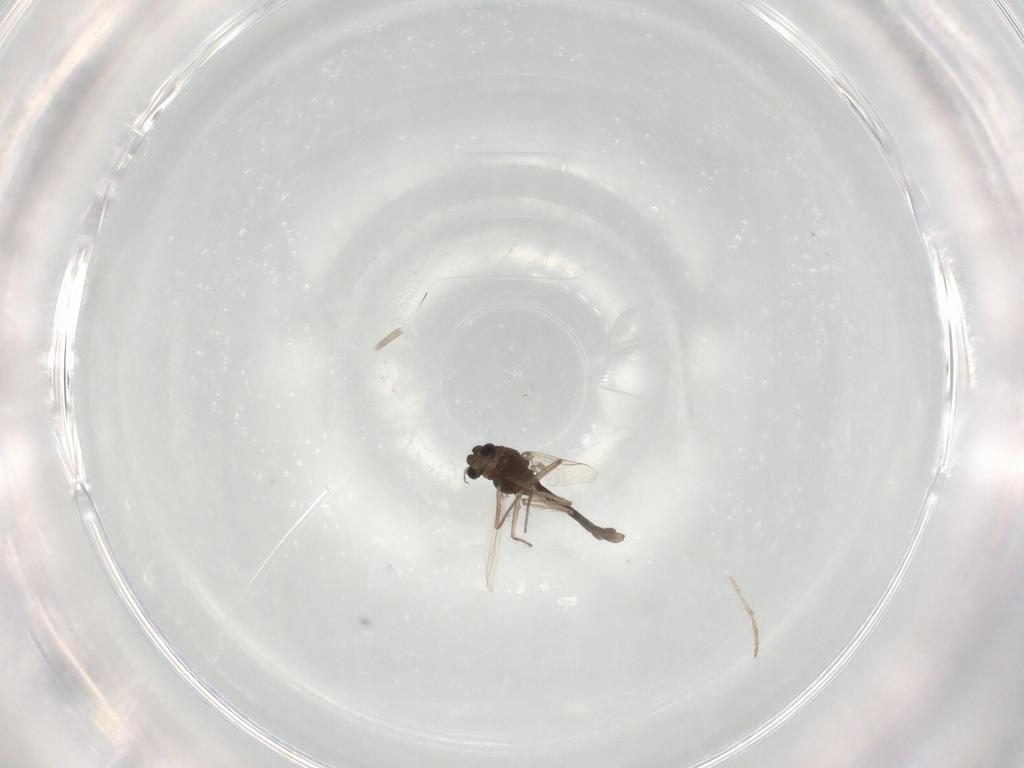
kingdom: Animalia
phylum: Arthropoda
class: Insecta
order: Diptera
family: Chironomidae
